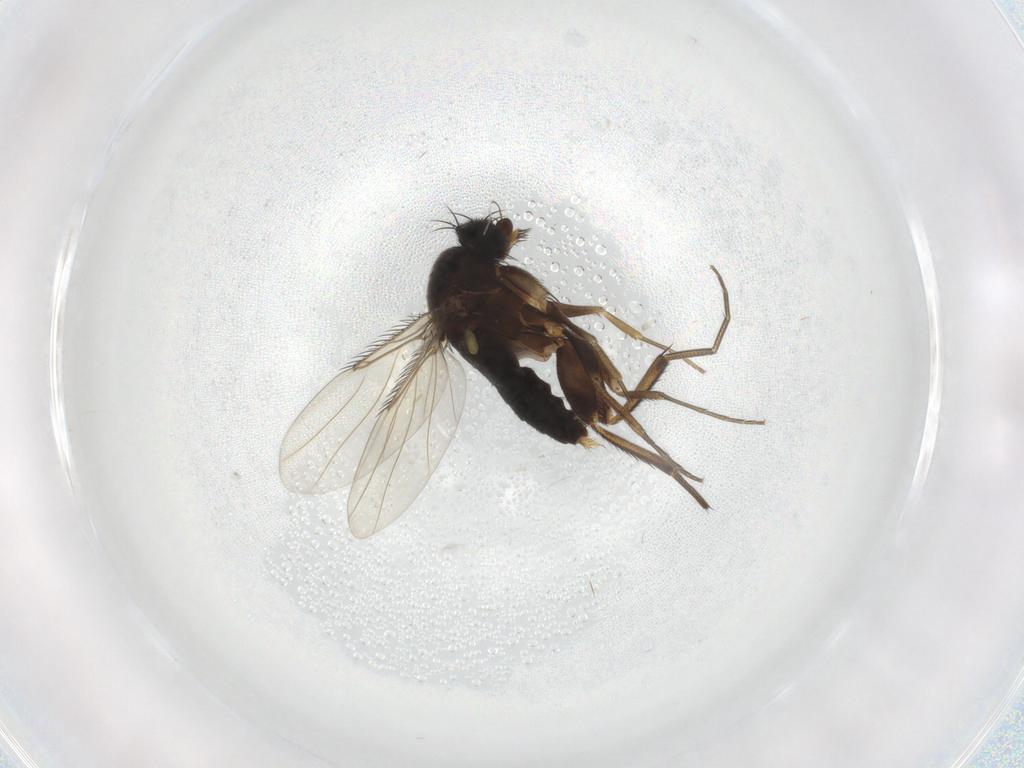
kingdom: Animalia
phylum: Arthropoda
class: Insecta
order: Diptera
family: Phoridae
